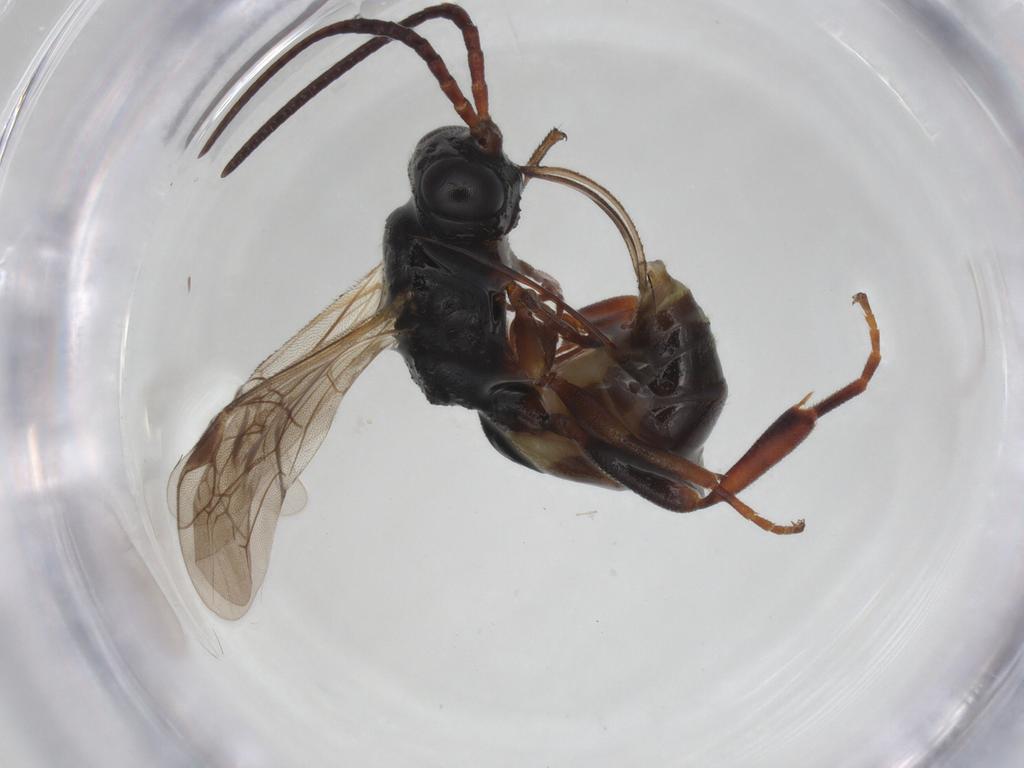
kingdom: Animalia
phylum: Arthropoda
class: Insecta
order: Hymenoptera
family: Ichneumonidae
